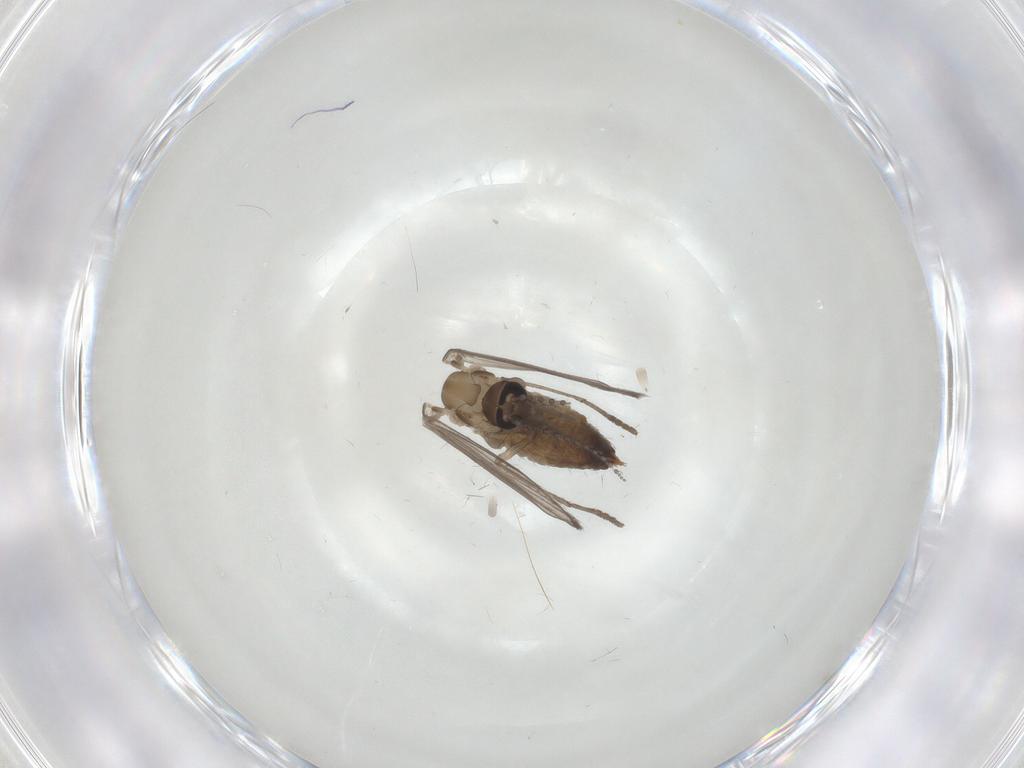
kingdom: Animalia
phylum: Arthropoda
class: Insecta
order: Diptera
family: Psychodidae
